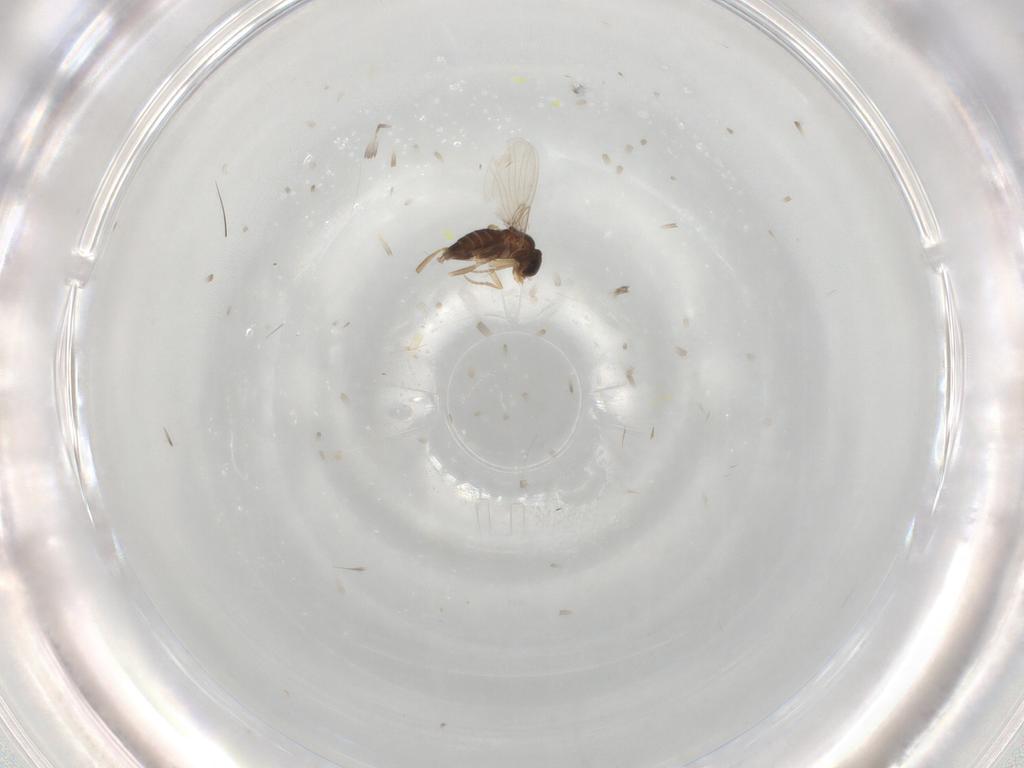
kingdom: Animalia
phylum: Arthropoda
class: Insecta
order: Diptera
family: Phoridae
